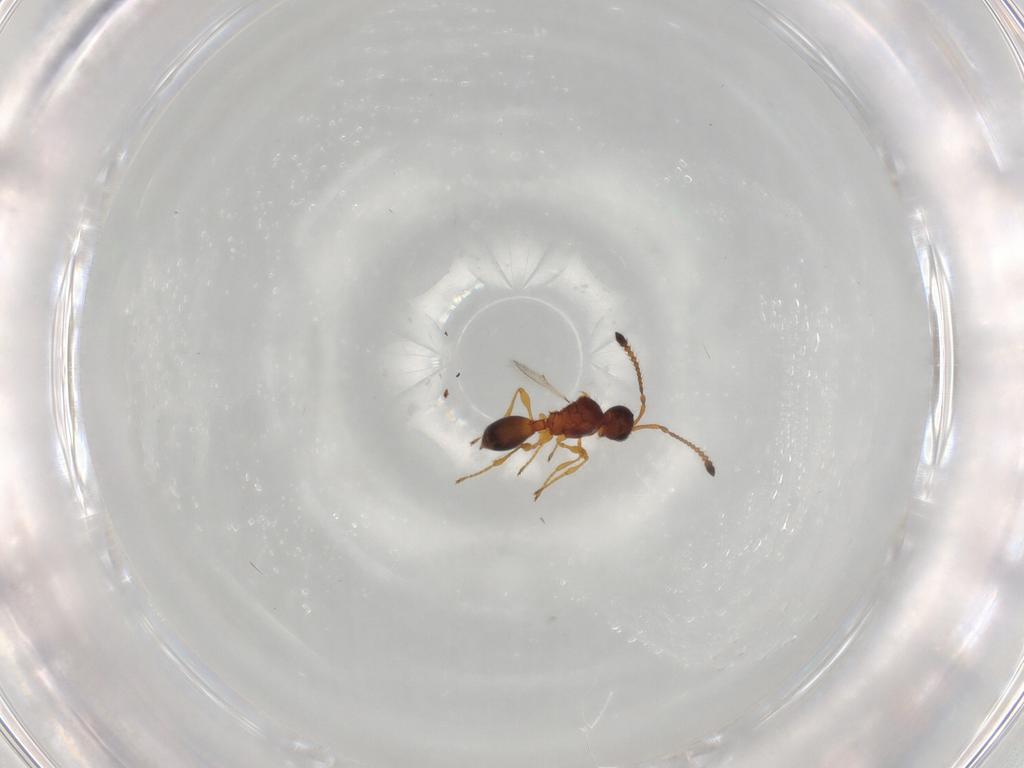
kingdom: Animalia
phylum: Arthropoda
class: Insecta
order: Hymenoptera
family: Diapriidae
